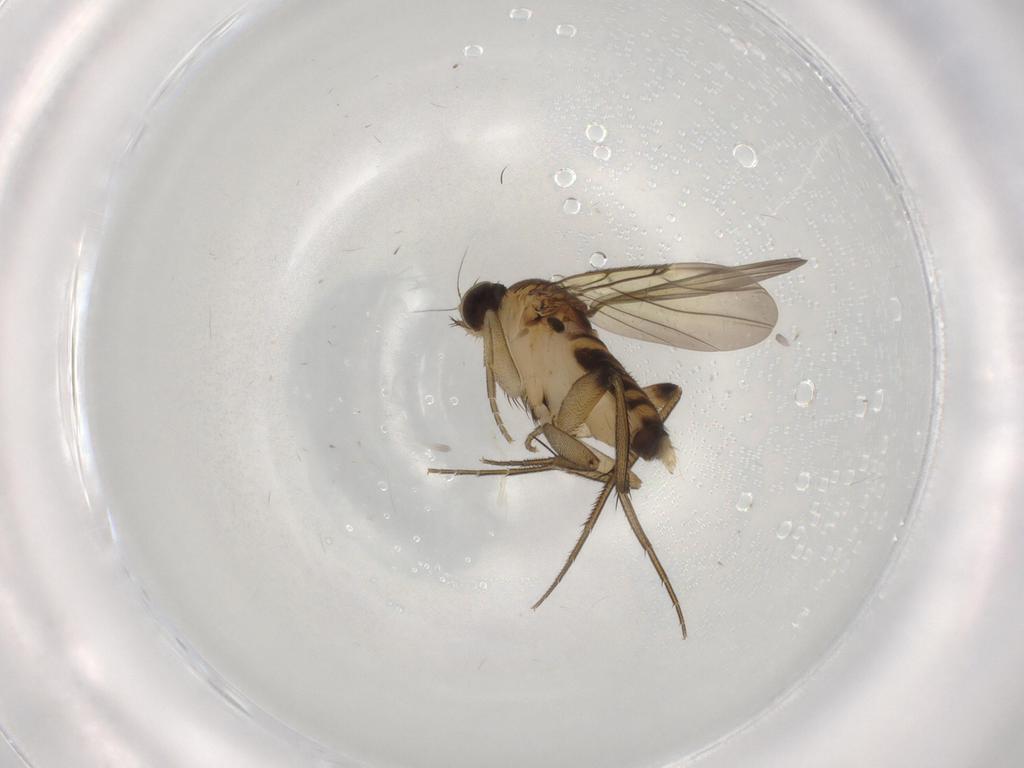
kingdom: Animalia
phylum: Arthropoda
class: Insecta
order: Diptera
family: Phoridae
